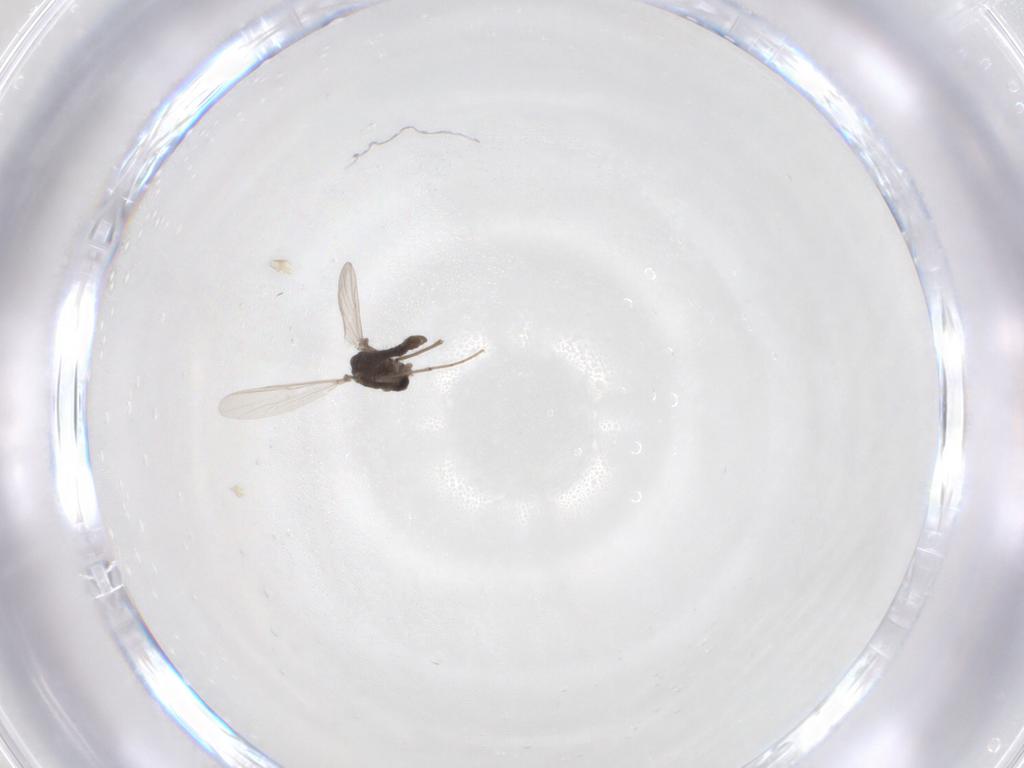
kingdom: Animalia
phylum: Arthropoda
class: Insecta
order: Diptera
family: Chironomidae
